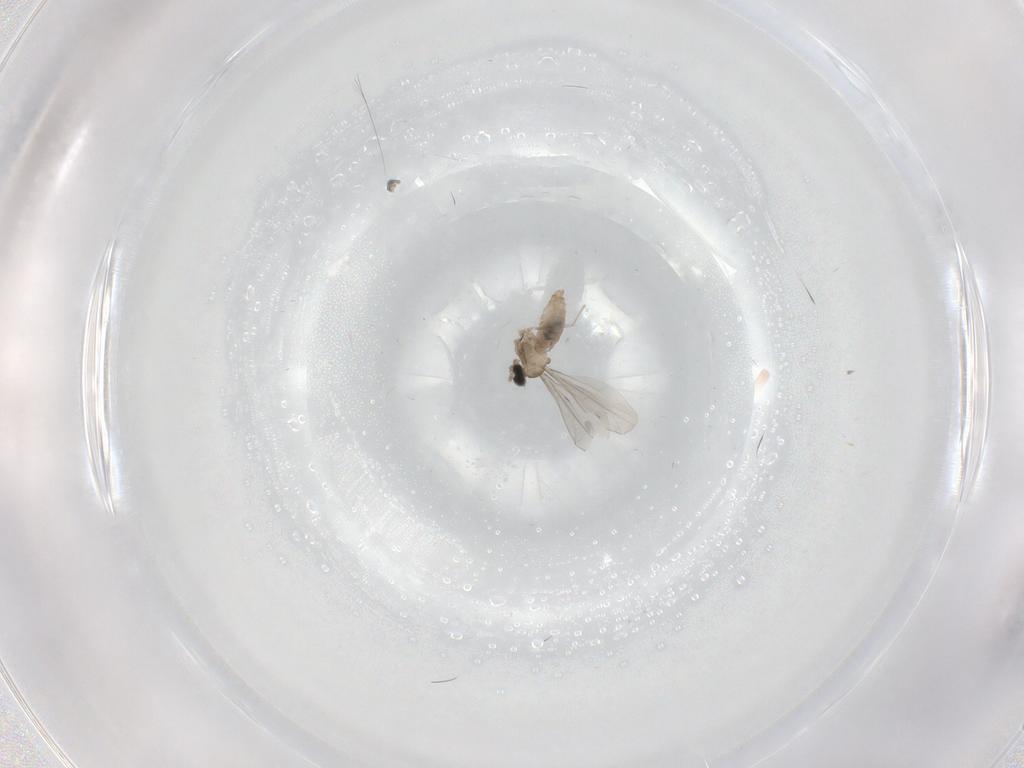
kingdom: Animalia
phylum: Arthropoda
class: Insecta
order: Diptera
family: Cecidomyiidae
